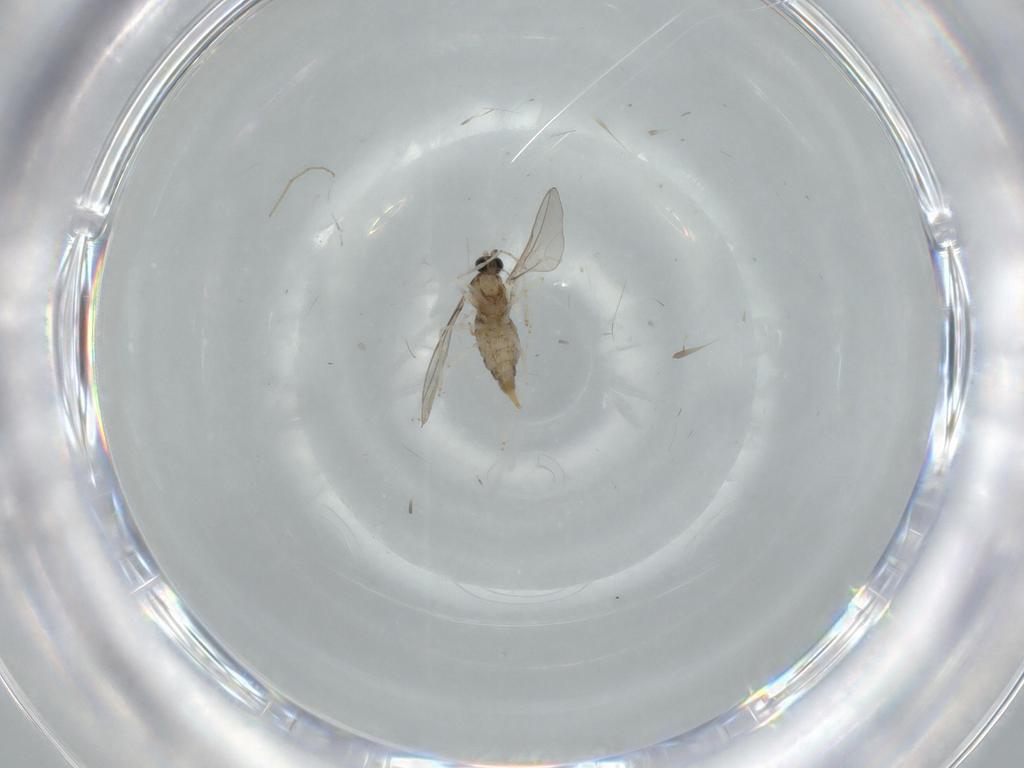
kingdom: Animalia
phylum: Arthropoda
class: Insecta
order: Diptera
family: Cecidomyiidae
